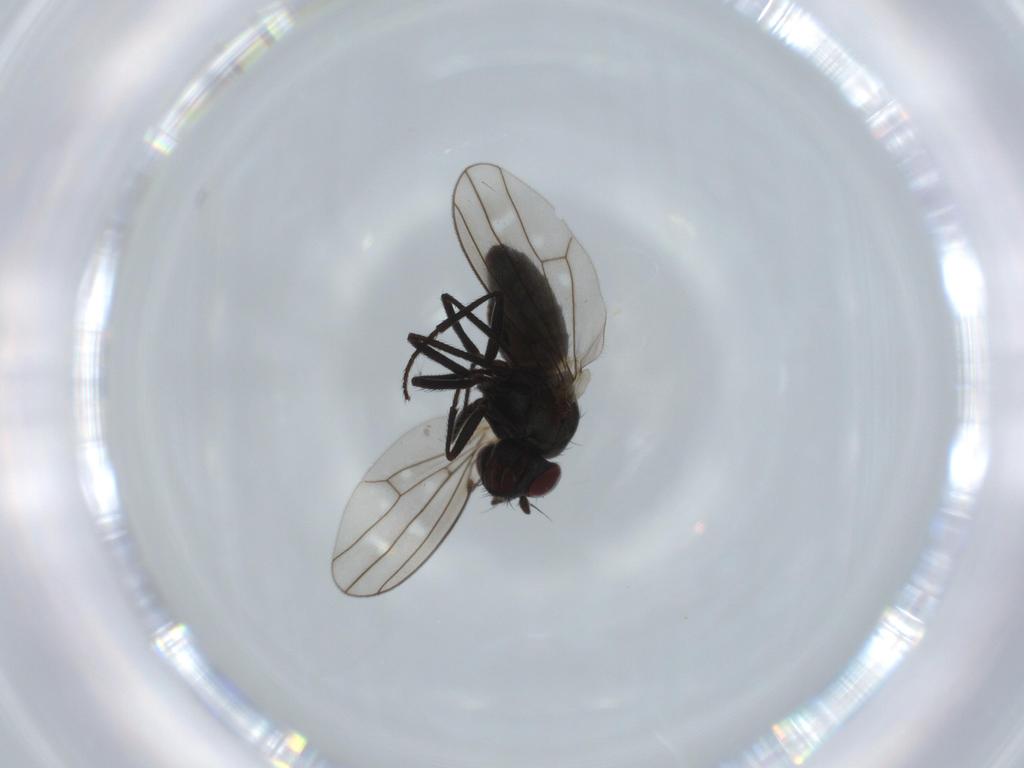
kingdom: Animalia
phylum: Arthropoda
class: Insecta
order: Diptera
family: Ephydridae
